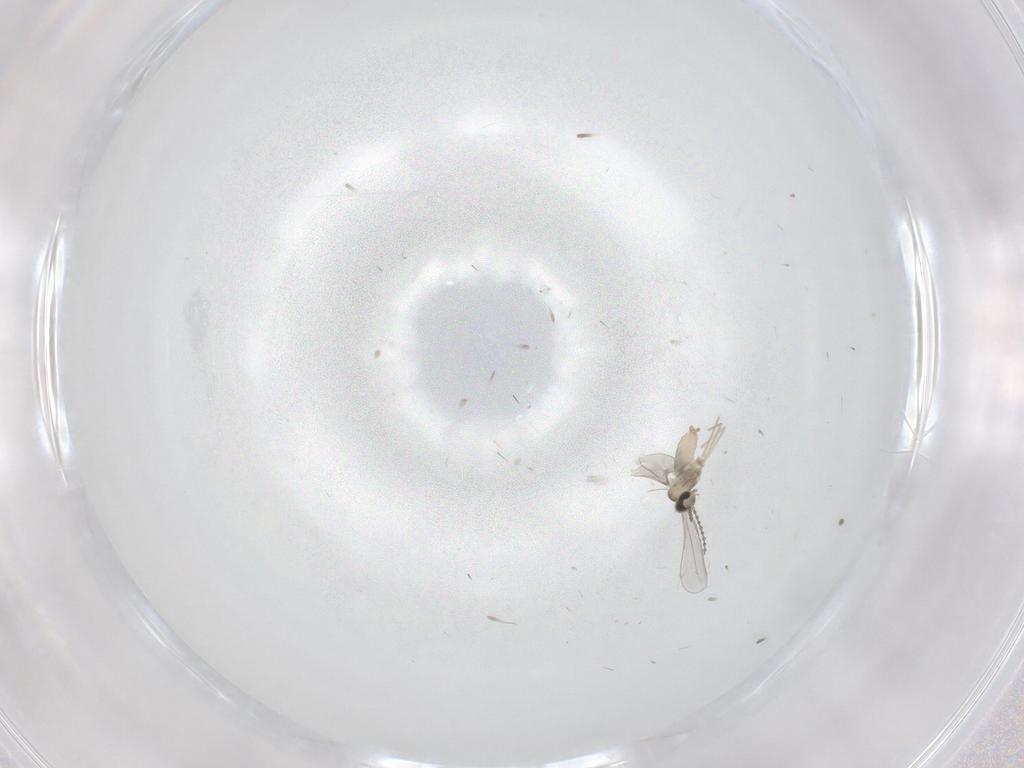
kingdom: Animalia
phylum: Arthropoda
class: Insecta
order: Diptera
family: Cecidomyiidae
